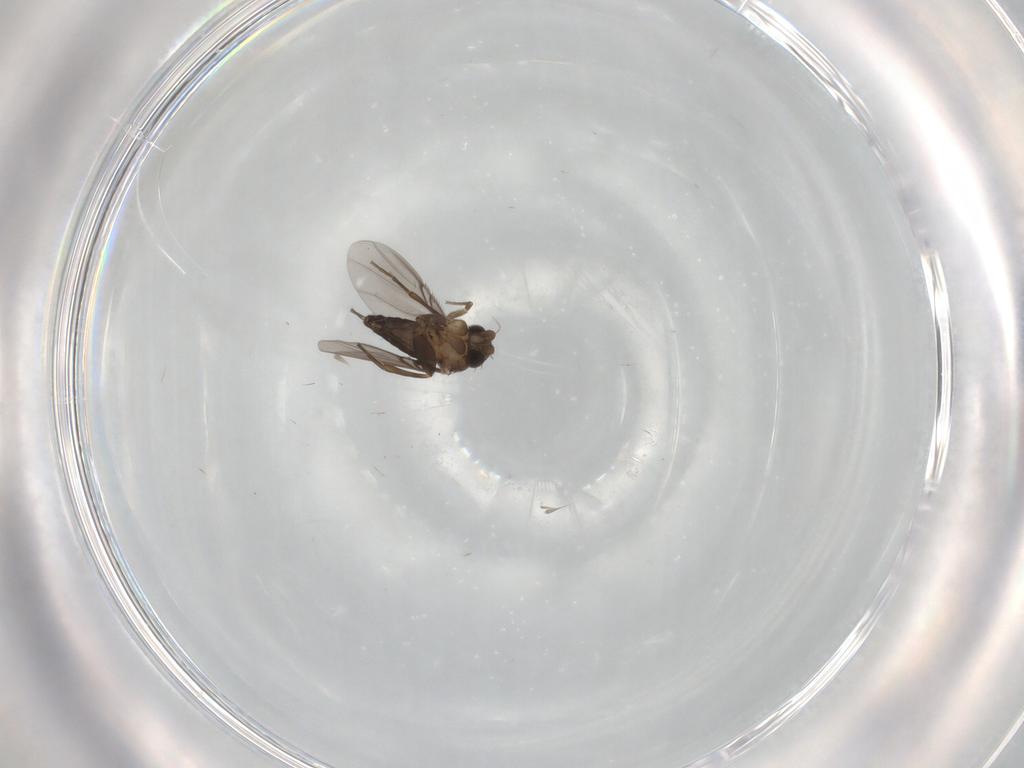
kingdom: Animalia
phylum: Arthropoda
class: Insecta
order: Diptera
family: Phoridae
